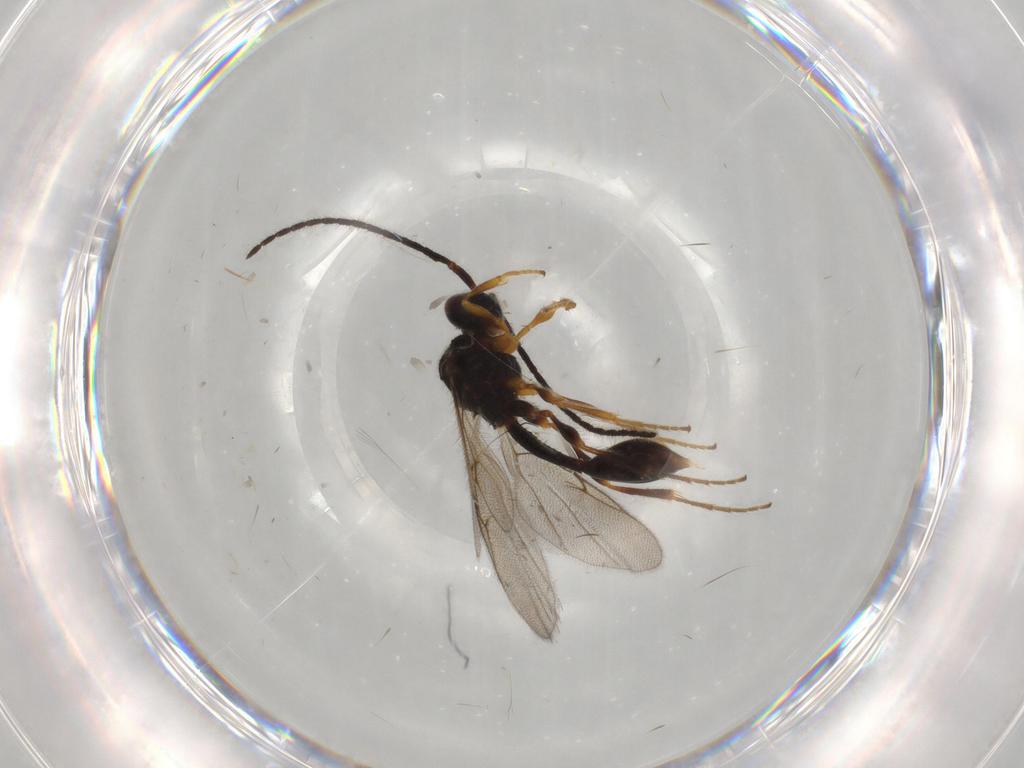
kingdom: Animalia
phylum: Arthropoda
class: Insecta
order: Hymenoptera
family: Diapriidae
